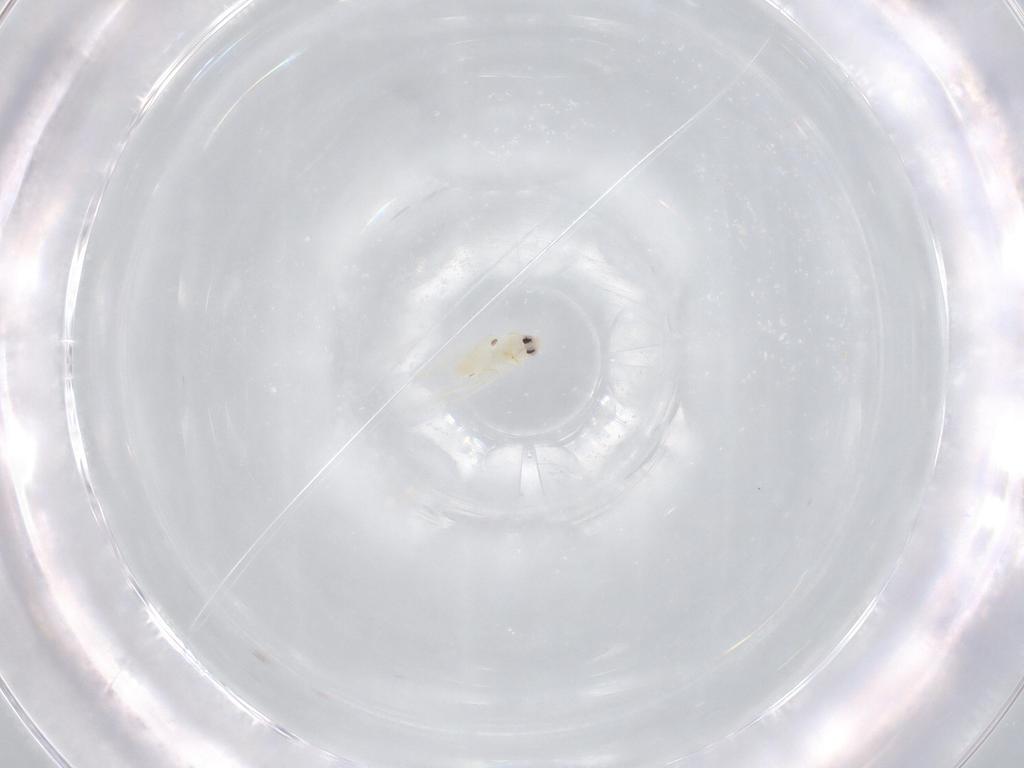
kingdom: Animalia
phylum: Arthropoda
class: Insecta
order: Hemiptera
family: Aleyrodidae
